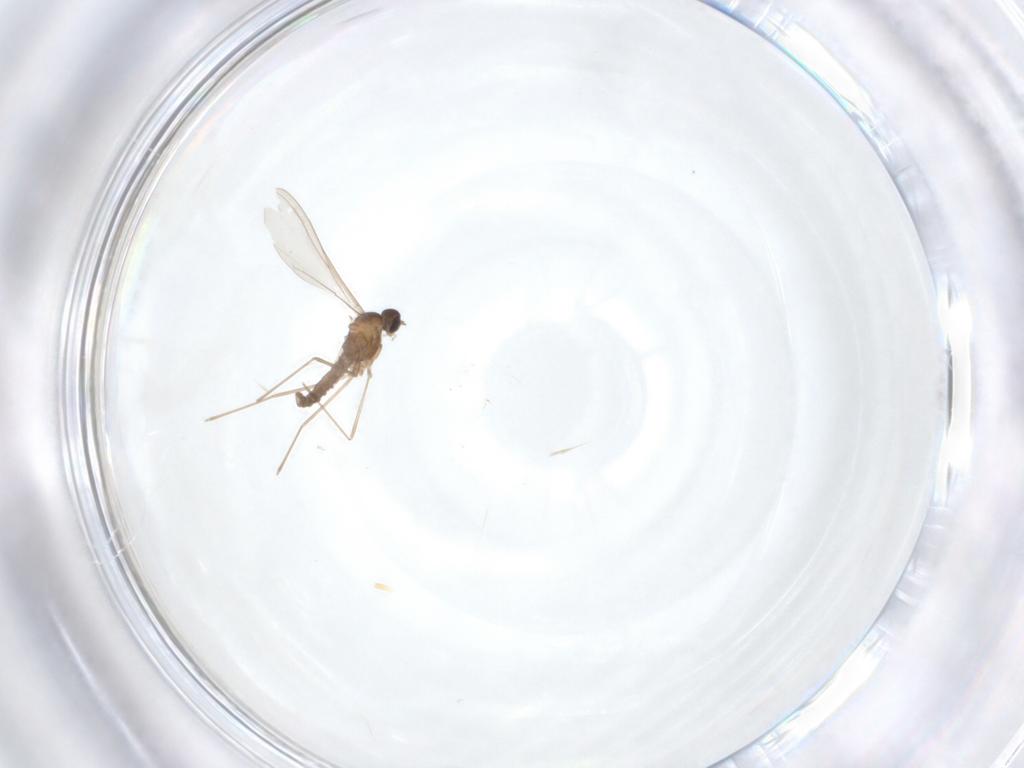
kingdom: Animalia
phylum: Arthropoda
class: Insecta
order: Diptera
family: Ceratopogonidae
